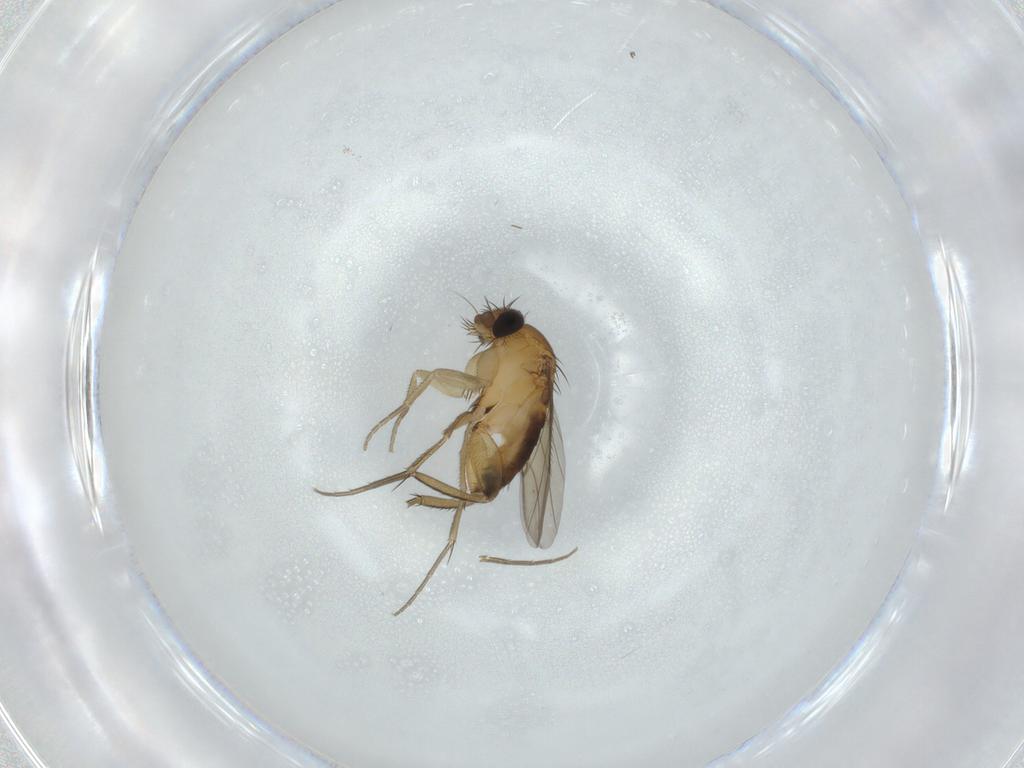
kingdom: Animalia
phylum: Arthropoda
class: Insecta
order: Diptera
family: Phoridae
